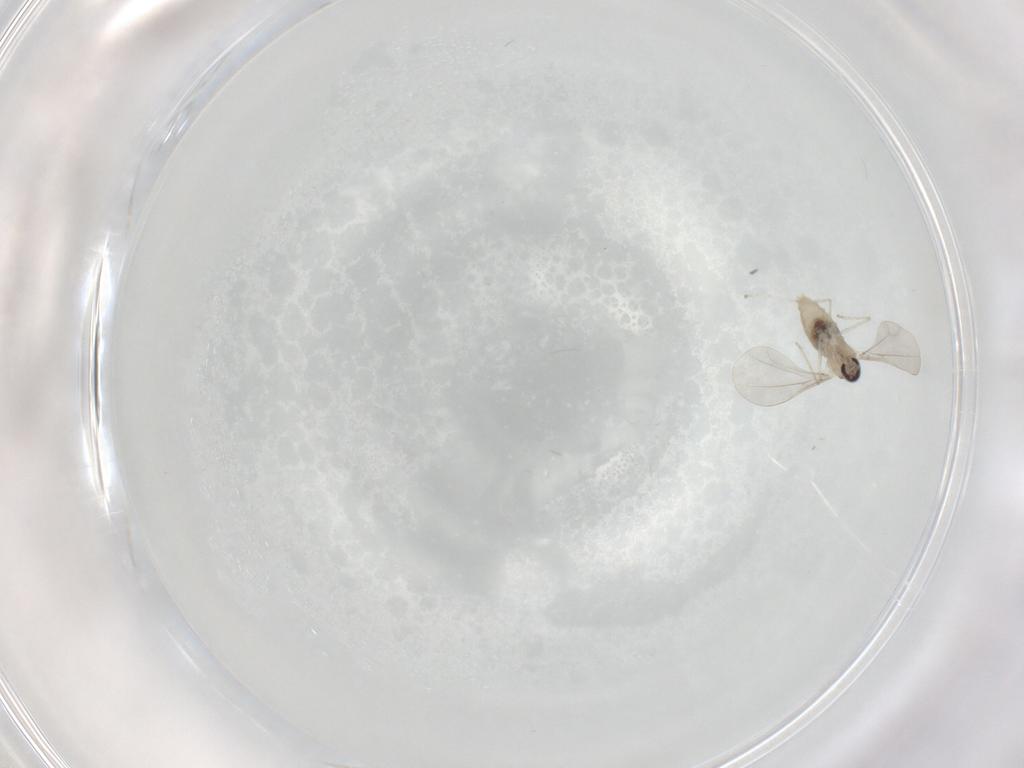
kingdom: Animalia
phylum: Arthropoda
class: Insecta
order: Diptera
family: Cecidomyiidae
